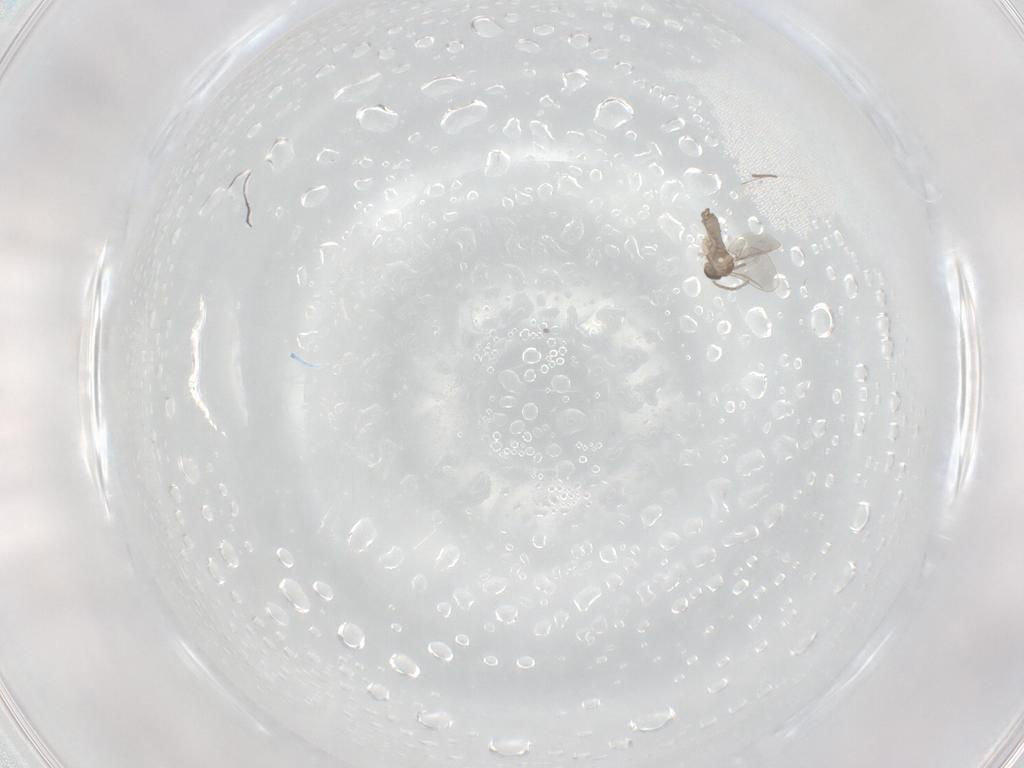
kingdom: Animalia
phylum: Arthropoda
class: Insecta
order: Diptera
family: Cecidomyiidae
